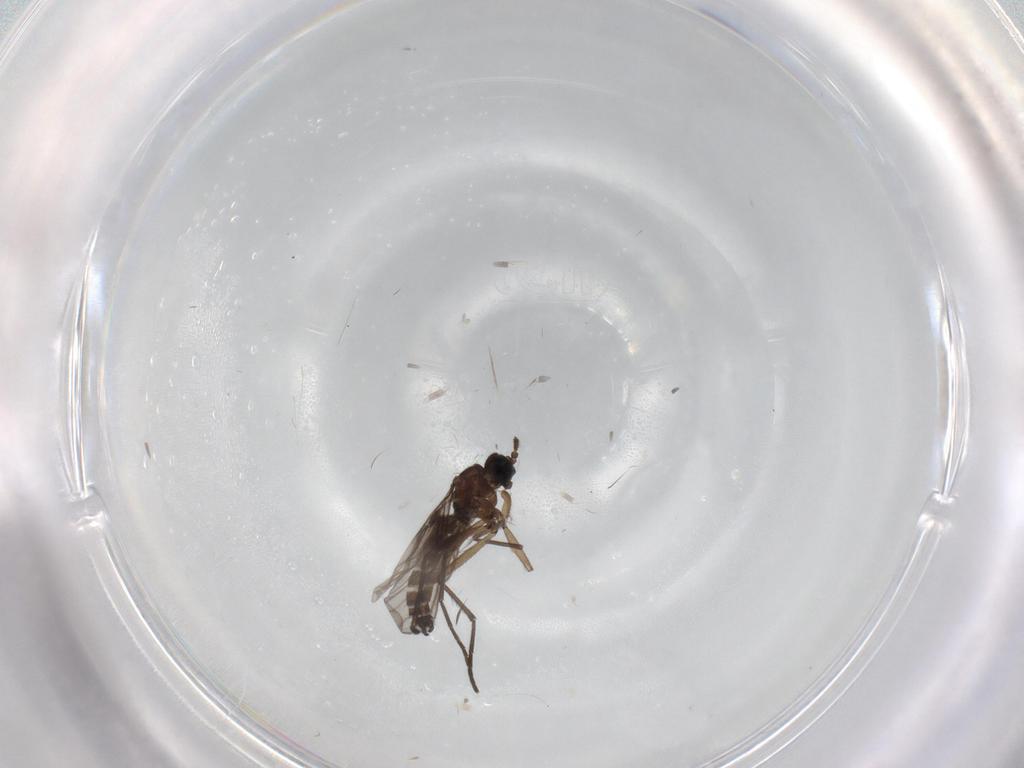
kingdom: Animalia
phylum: Arthropoda
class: Insecta
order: Diptera
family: Sciaridae
